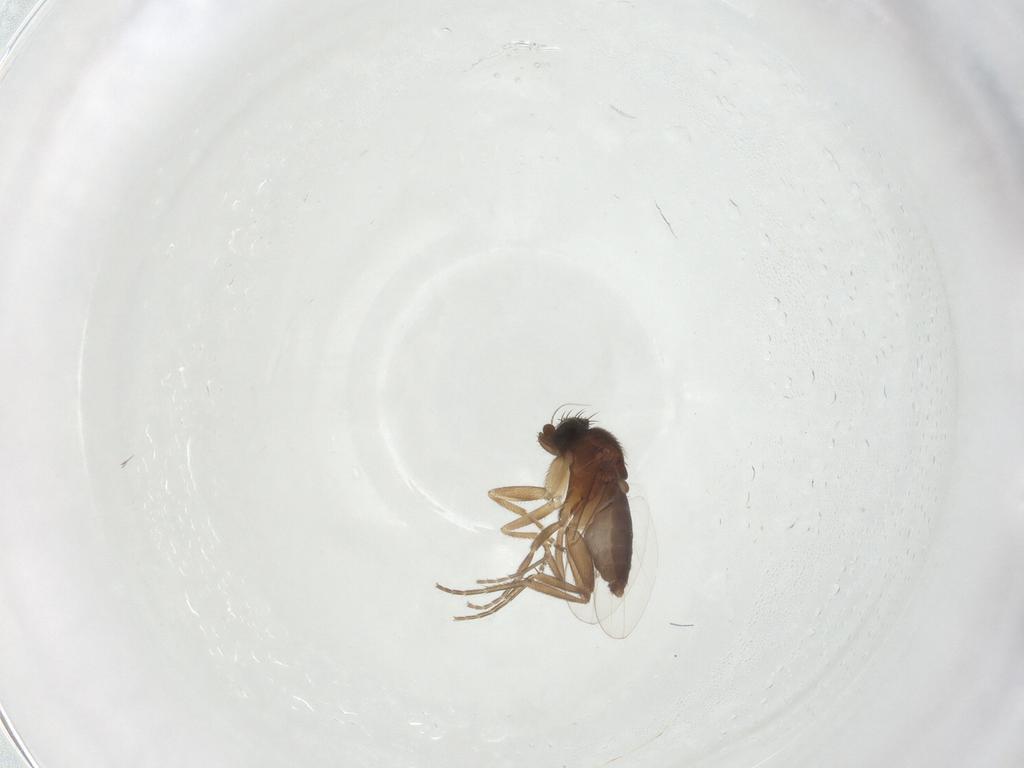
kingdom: Animalia
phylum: Arthropoda
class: Insecta
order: Diptera
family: Phoridae
